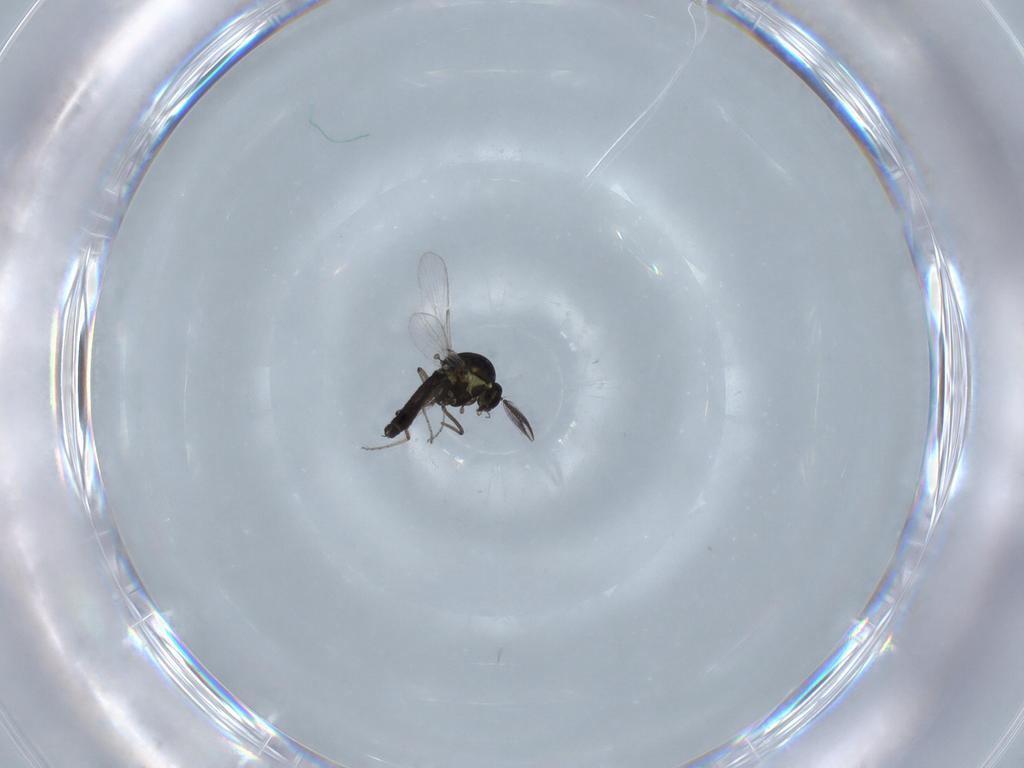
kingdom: Animalia
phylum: Arthropoda
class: Insecta
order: Diptera
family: Ceratopogonidae
